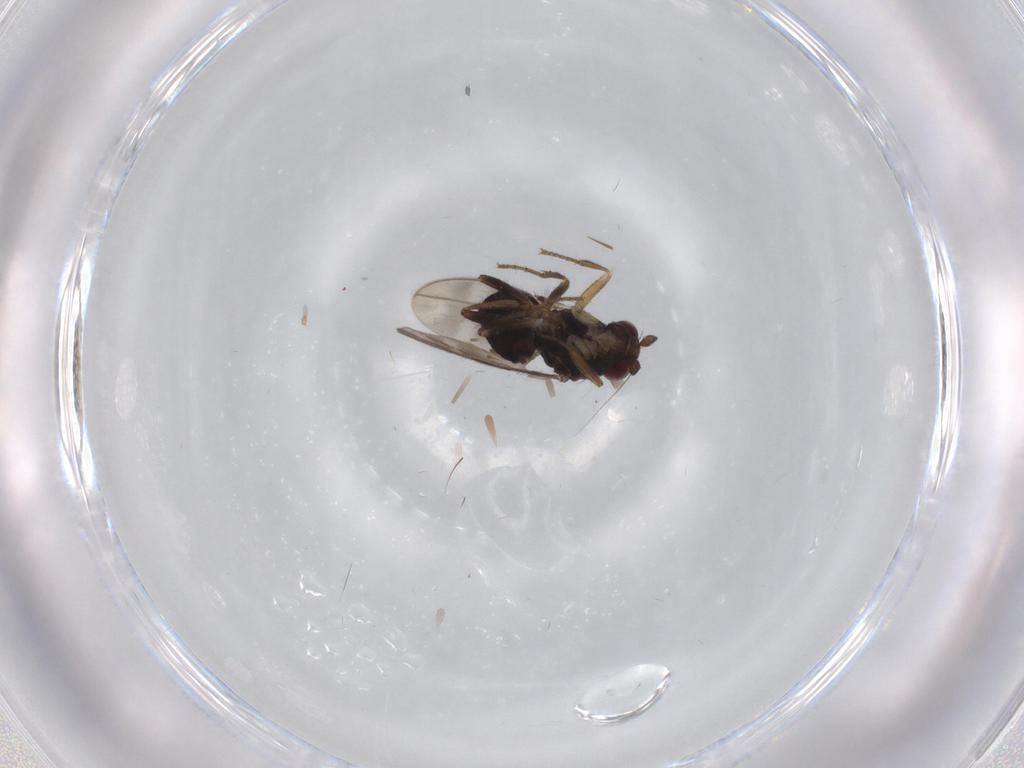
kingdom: Animalia
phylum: Arthropoda
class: Insecta
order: Diptera
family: Sphaeroceridae
